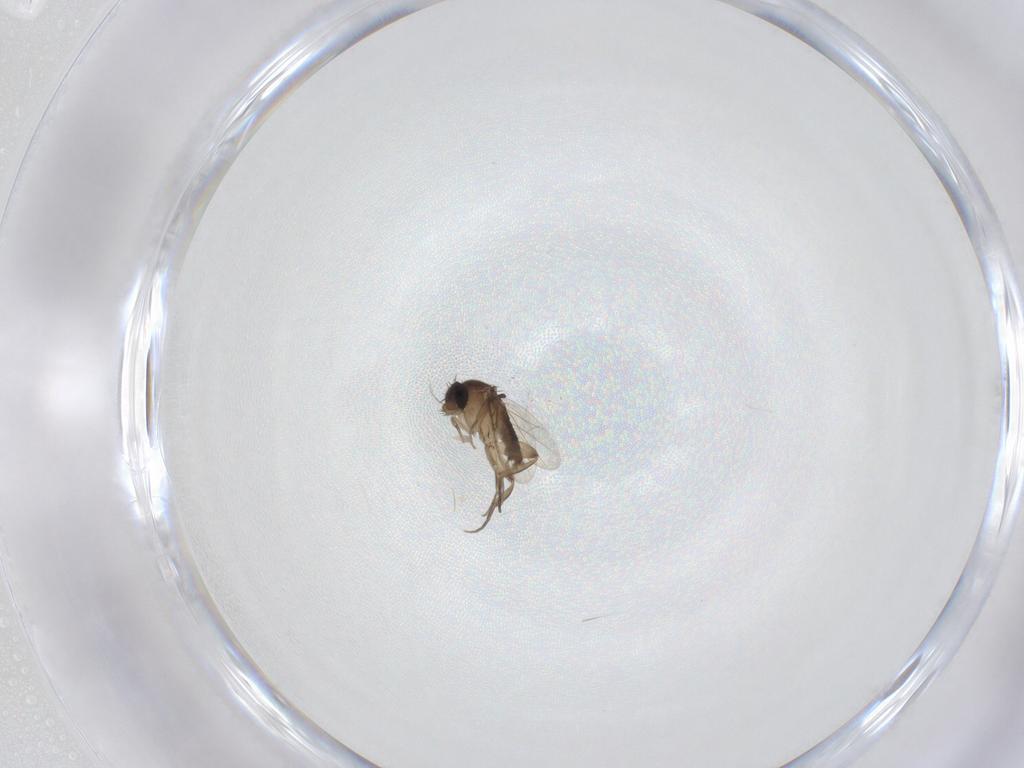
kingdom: Animalia
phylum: Arthropoda
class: Insecta
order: Diptera
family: Phoridae
